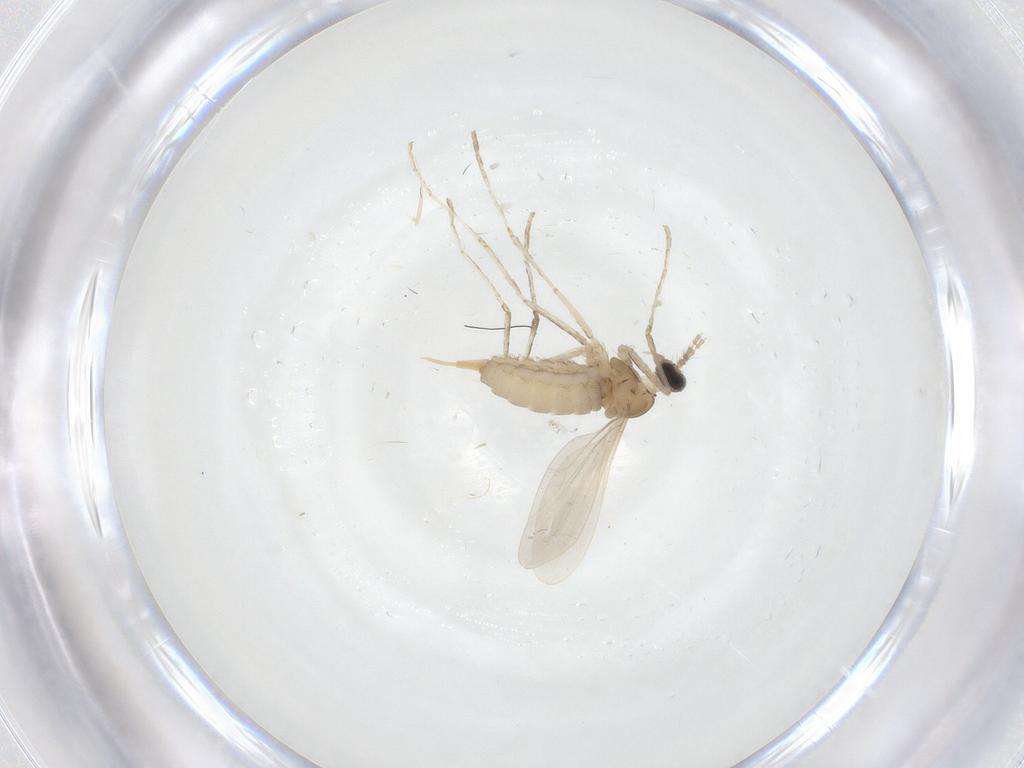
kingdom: Animalia
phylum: Arthropoda
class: Insecta
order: Diptera
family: Cecidomyiidae
